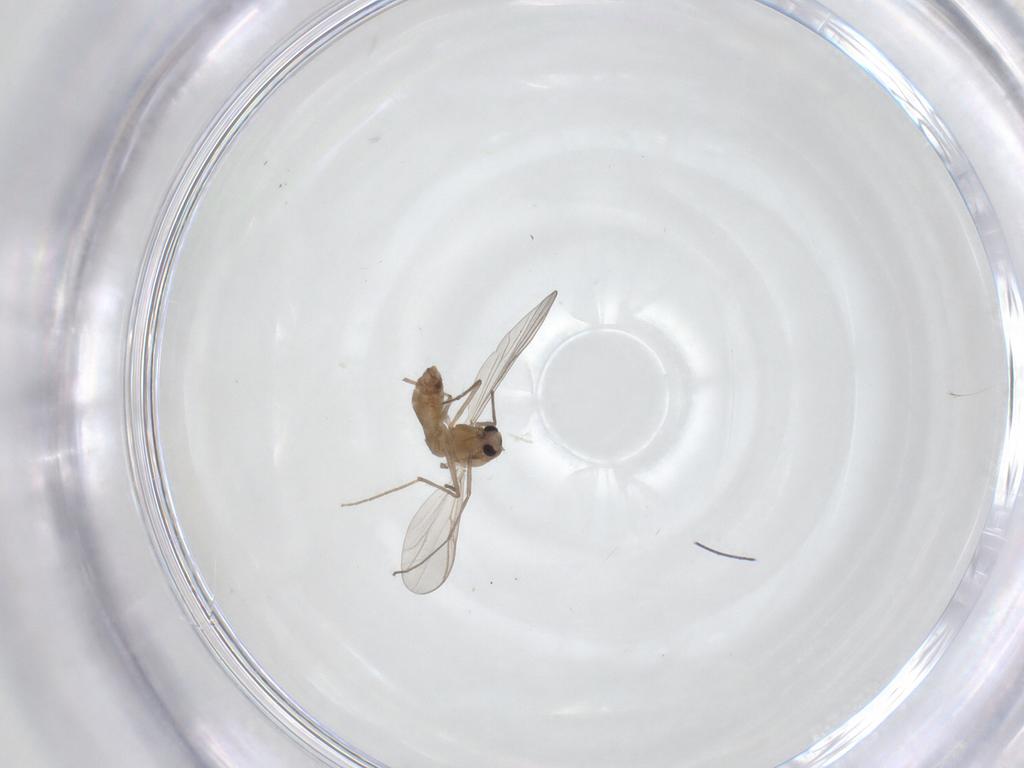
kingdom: Animalia
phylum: Arthropoda
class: Insecta
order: Diptera
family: Chironomidae
